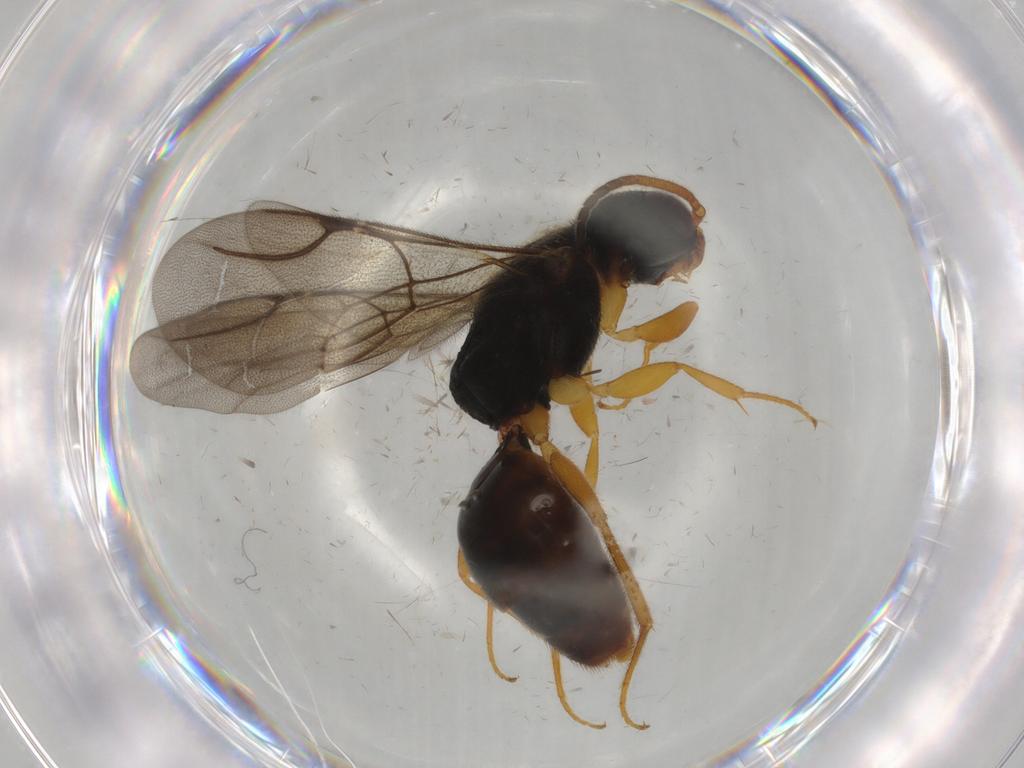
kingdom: Animalia
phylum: Arthropoda
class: Insecta
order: Hymenoptera
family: Bethylidae
